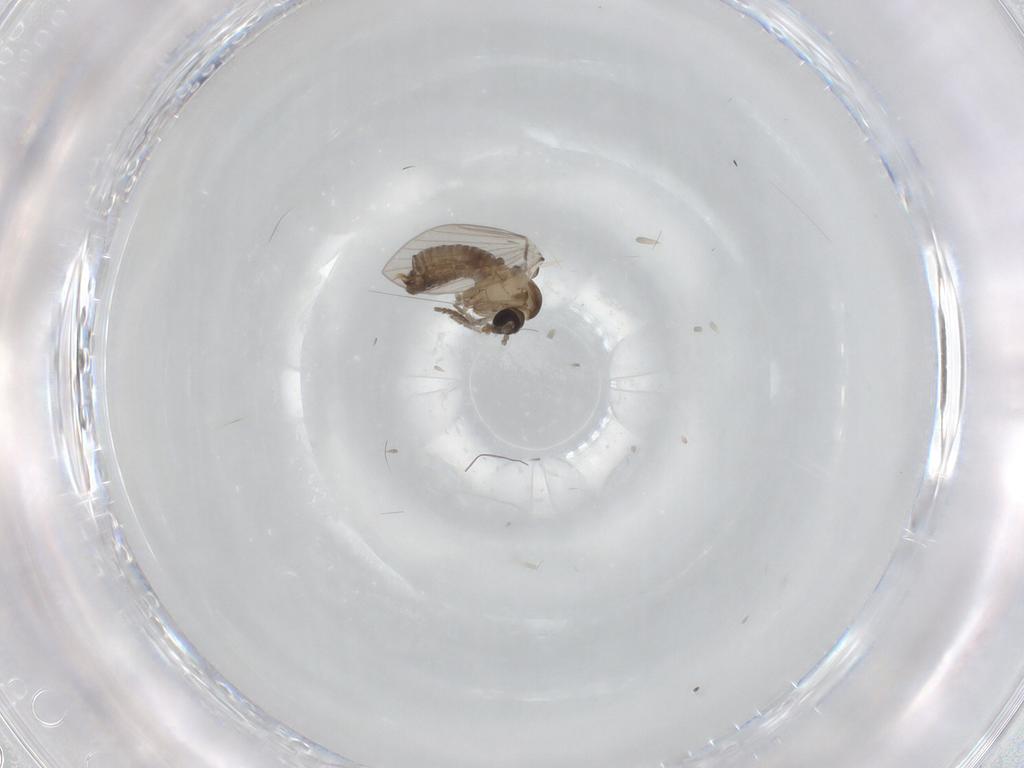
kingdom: Animalia
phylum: Arthropoda
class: Insecta
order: Diptera
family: Psychodidae
